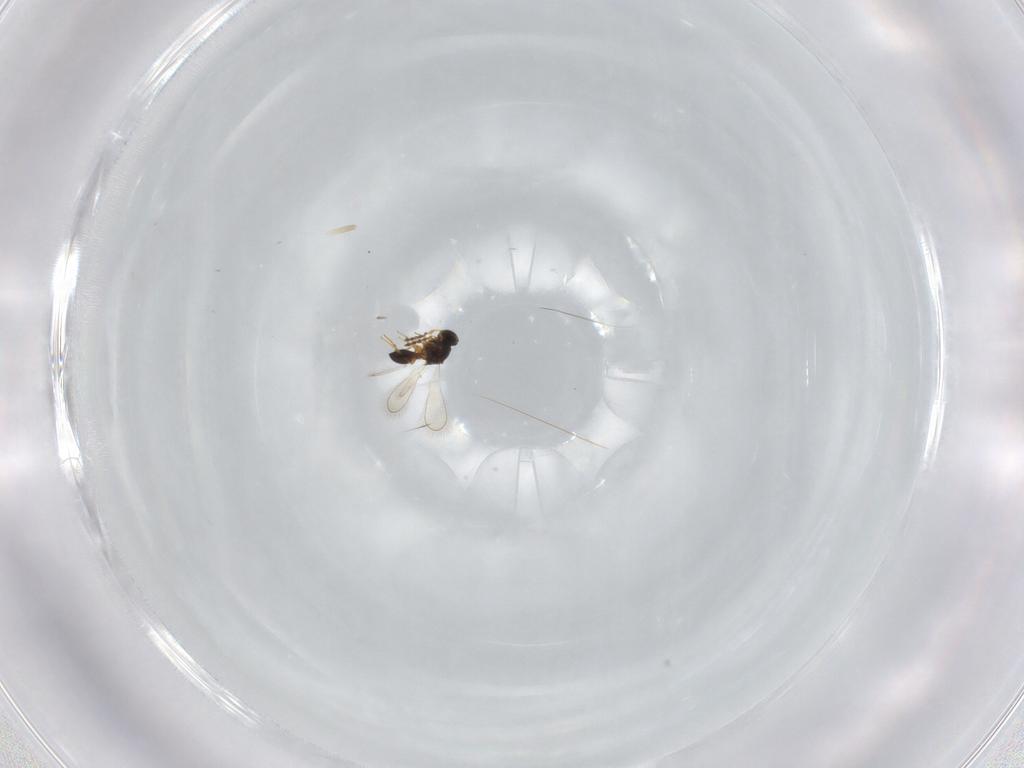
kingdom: Animalia
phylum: Arthropoda
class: Insecta
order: Hymenoptera
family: Platygastridae
